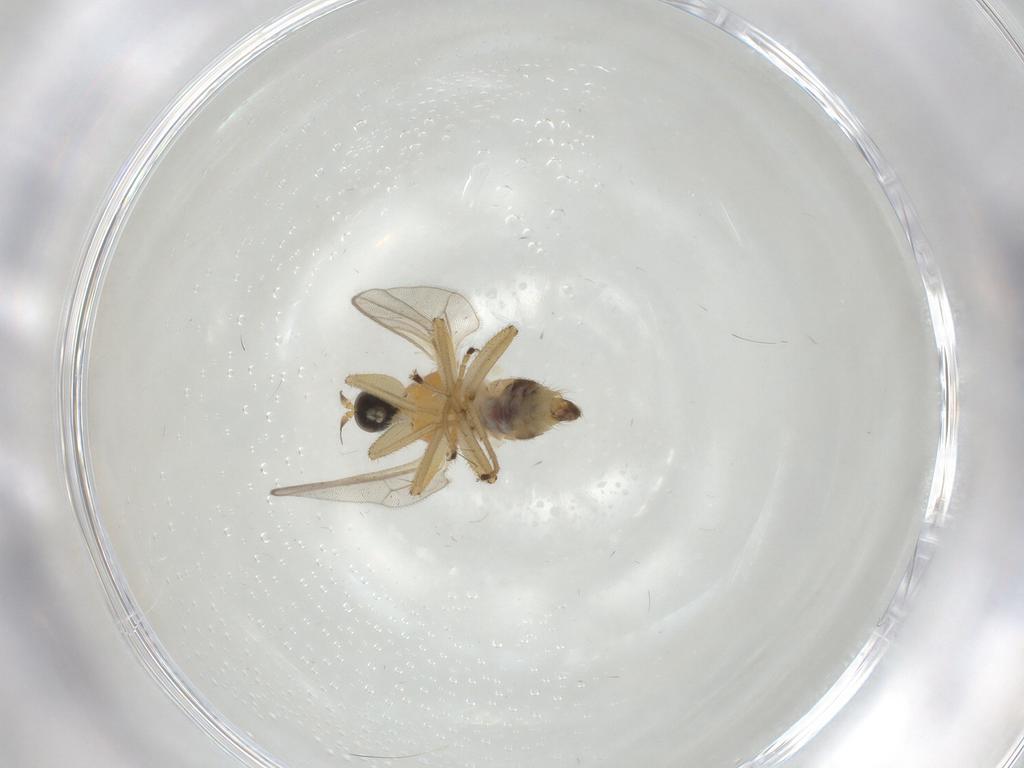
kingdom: Animalia
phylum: Arthropoda
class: Insecta
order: Diptera
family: Hybotidae
